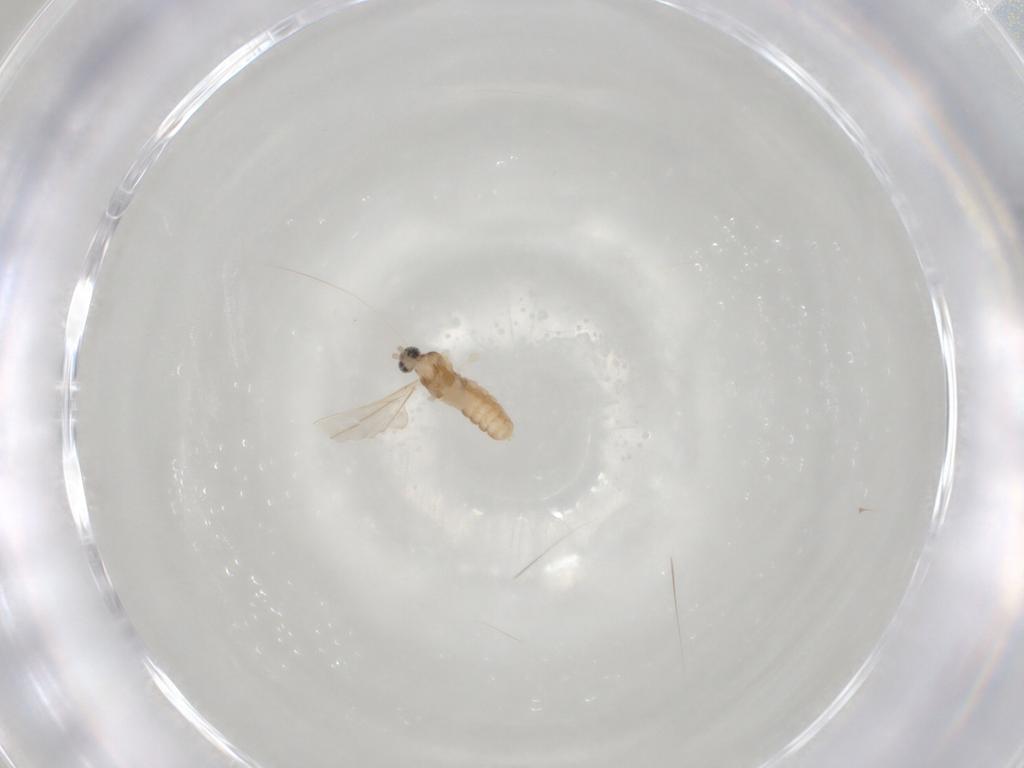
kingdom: Animalia
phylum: Arthropoda
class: Insecta
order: Diptera
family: Cecidomyiidae
